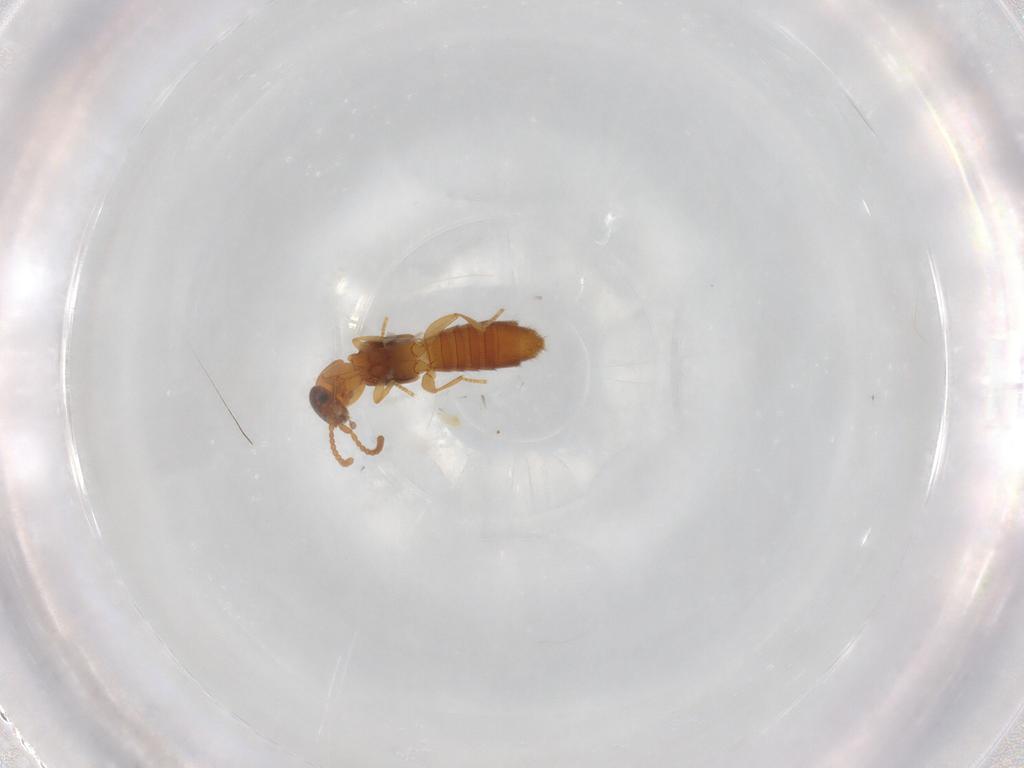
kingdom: Animalia
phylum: Arthropoda
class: Insecta
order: Coleoptera
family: Staphylinidae
